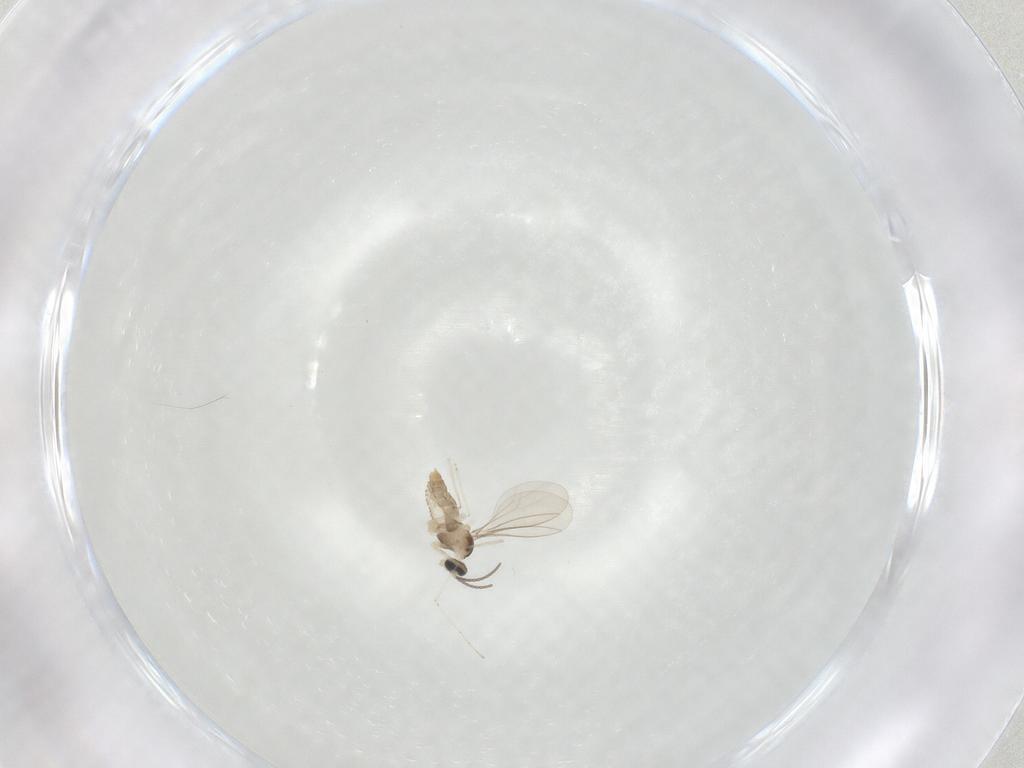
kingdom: Animalia
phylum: Arthropoda
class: Insecta
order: Diptera
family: Cecidomyiidae
